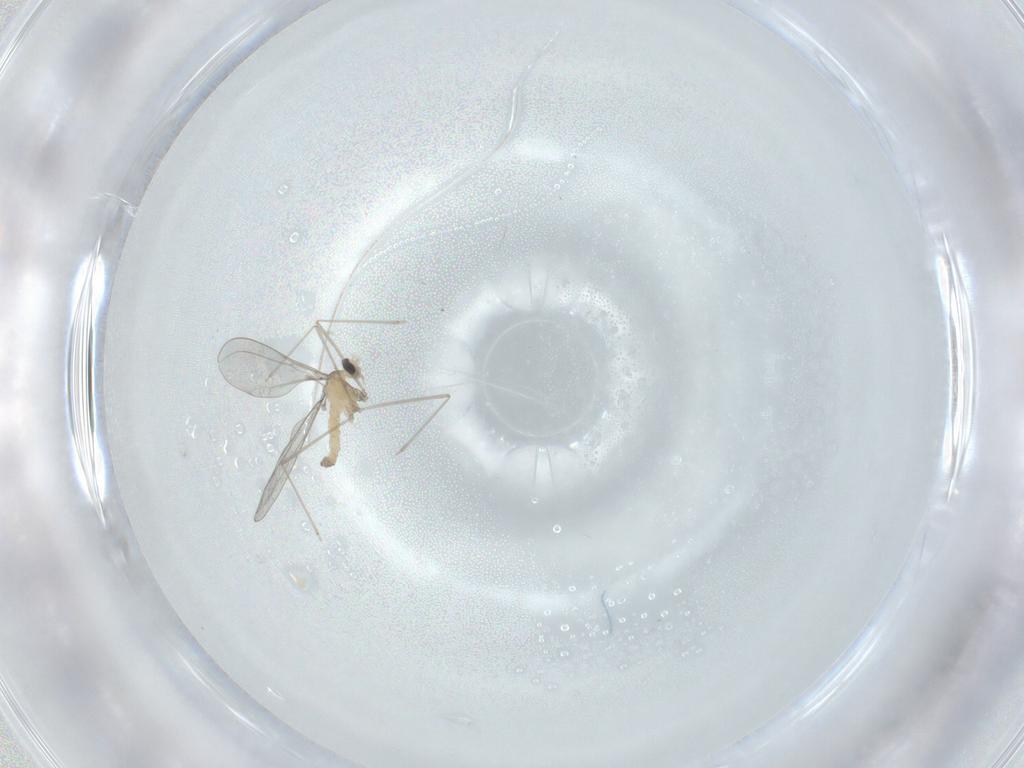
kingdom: Animalia
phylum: Arthropoda
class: Insecta
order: Diptera
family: Cecidomyiidae
